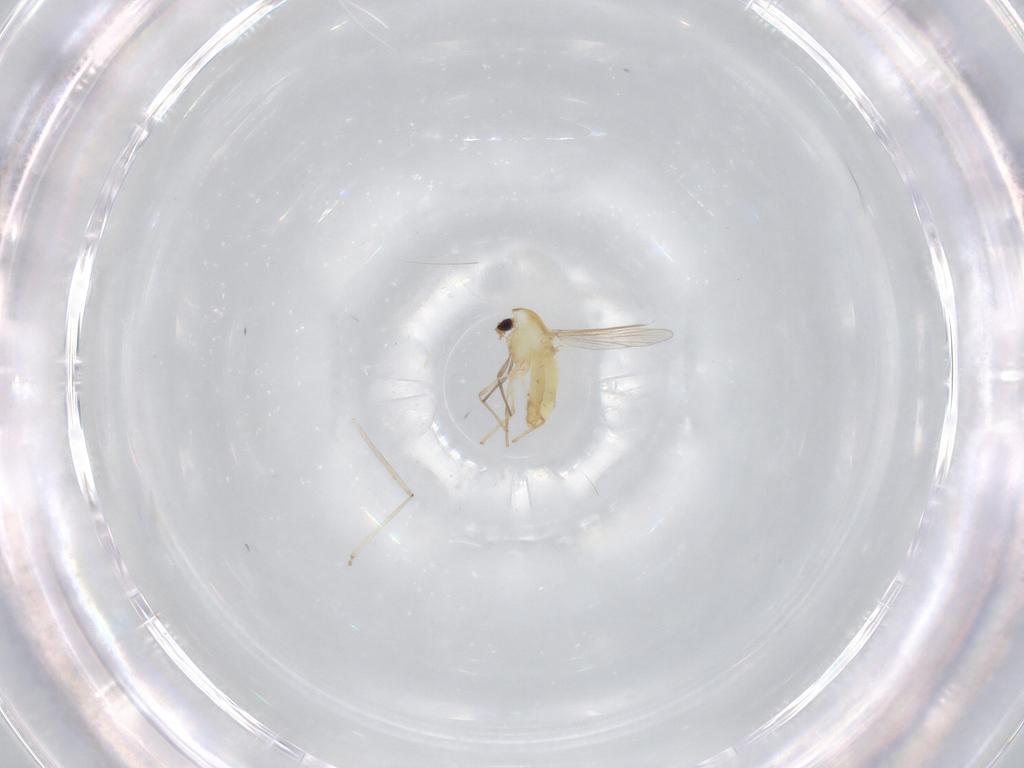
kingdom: Animalia
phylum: Arthropoda
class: Insecta
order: Diptera
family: Chironomidae
